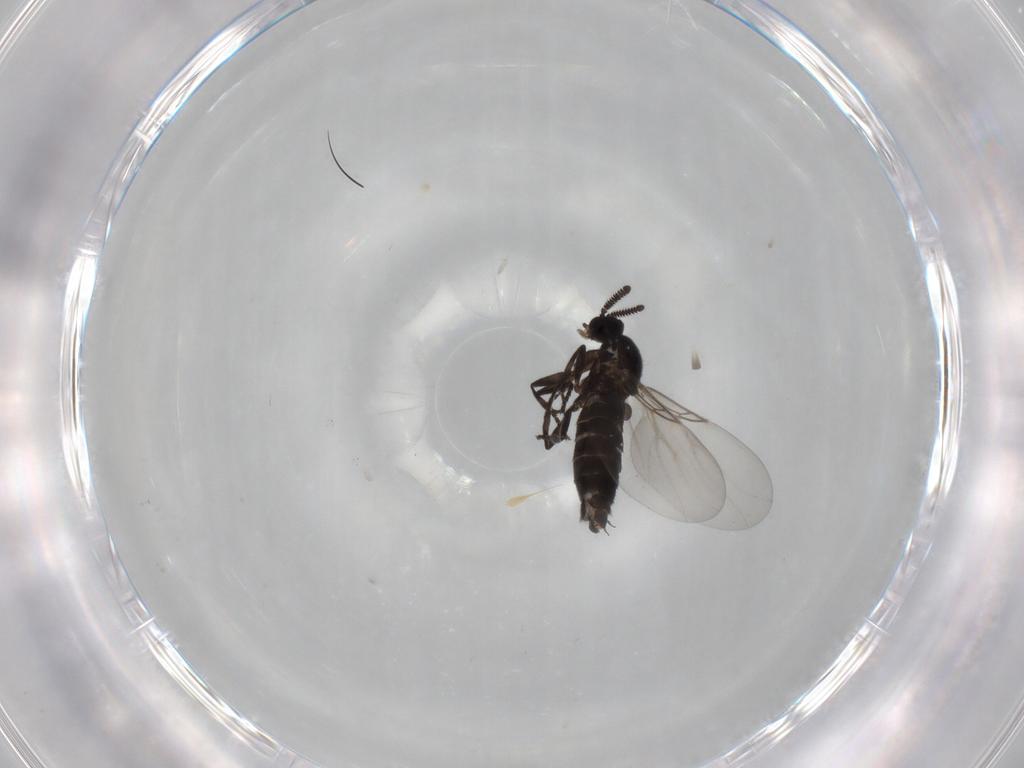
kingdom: Animalia
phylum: Arthropoda
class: Insecta
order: Diptera
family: Scatopsidae
